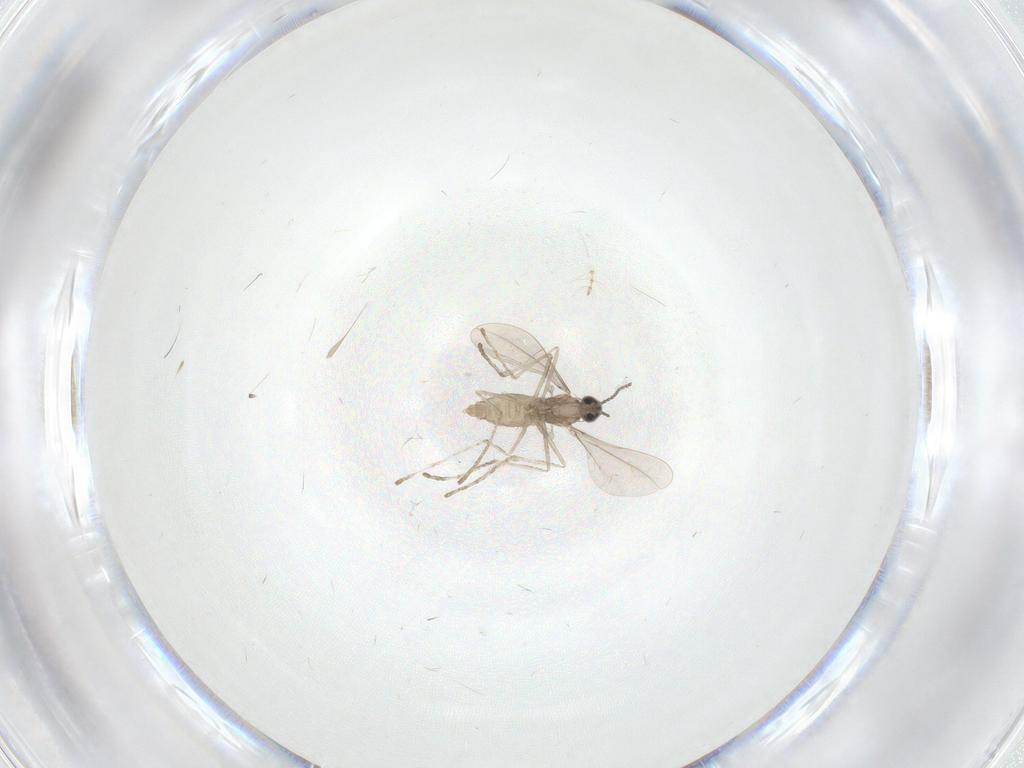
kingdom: Animalia
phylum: Arthropoda
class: Insecta
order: Diptera
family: Cecidomyiidae
